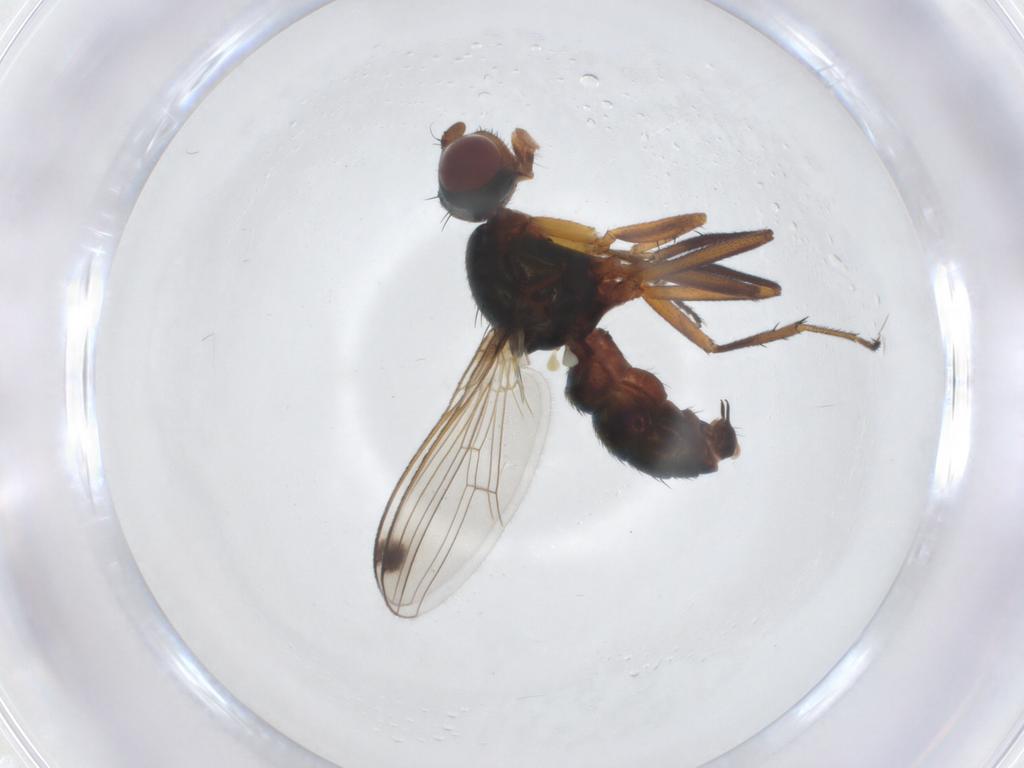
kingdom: Animalia
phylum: Arthropoda
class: Insecta
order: Diptera
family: Sepsidae
